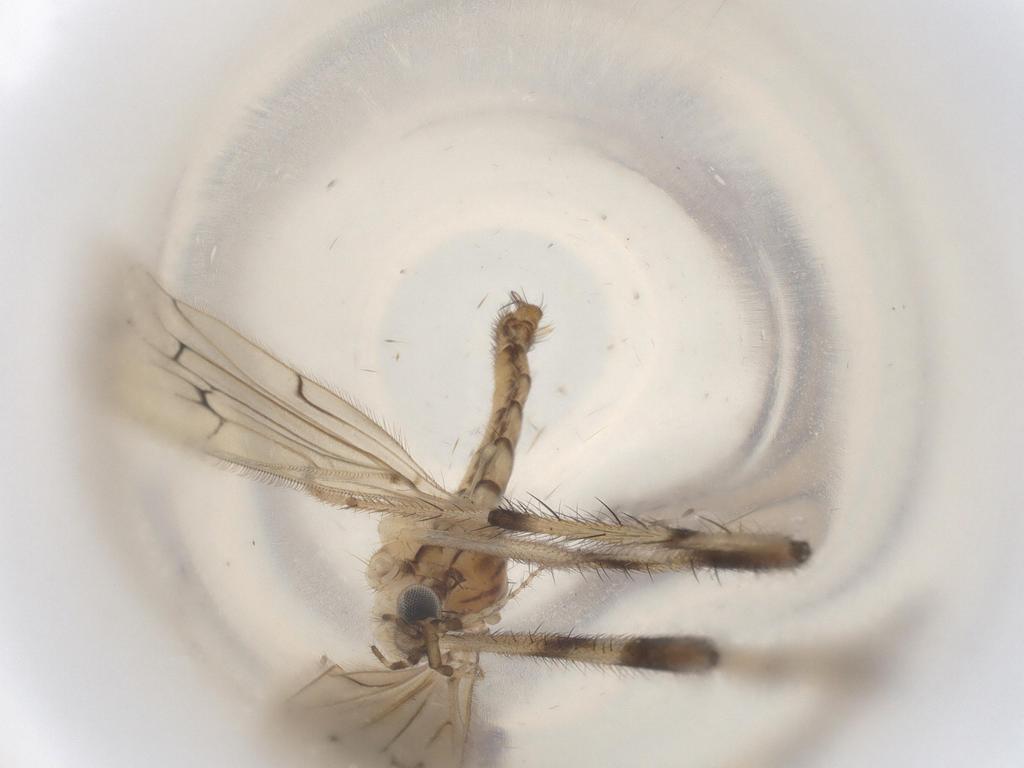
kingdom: Animalia
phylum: Arthropoda
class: Insecta
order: Diptera
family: Limoniidae
